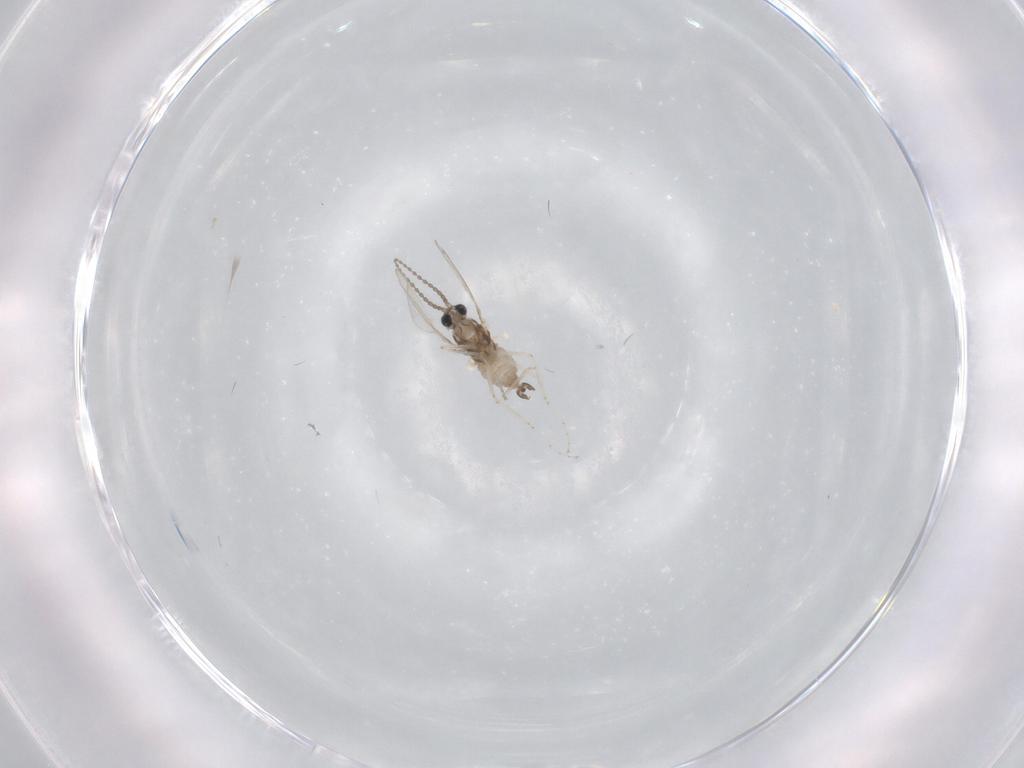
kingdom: Animalia
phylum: Arthropoda
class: Insecta
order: Diptera
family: Cecidomyiidae
